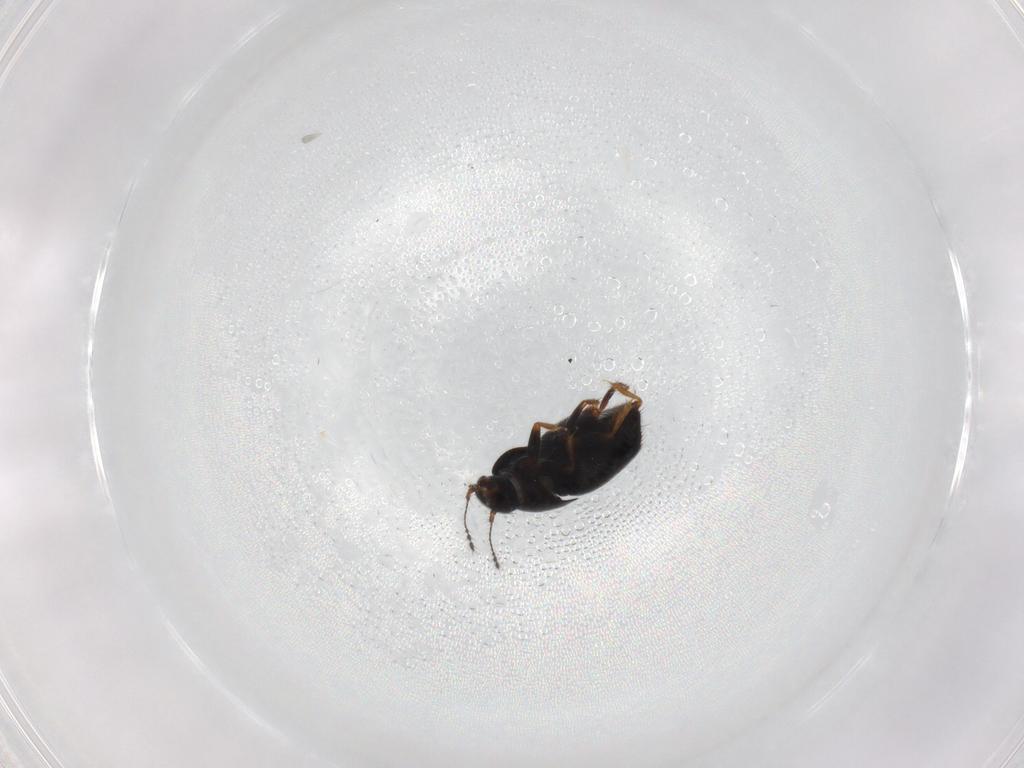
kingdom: Animalia
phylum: Arthropoda
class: Insecta
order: Coleoptera
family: Ptiliidae
